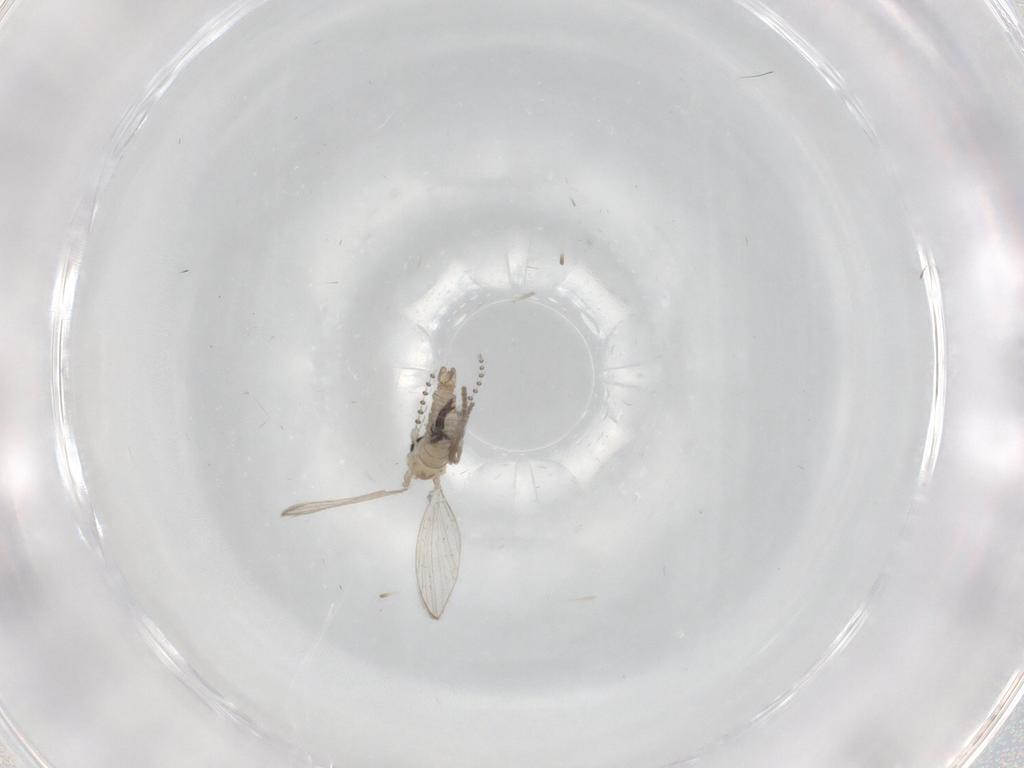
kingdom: Animalia
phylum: Arthropoda
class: Insecta
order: Diptera
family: Psychodidae
